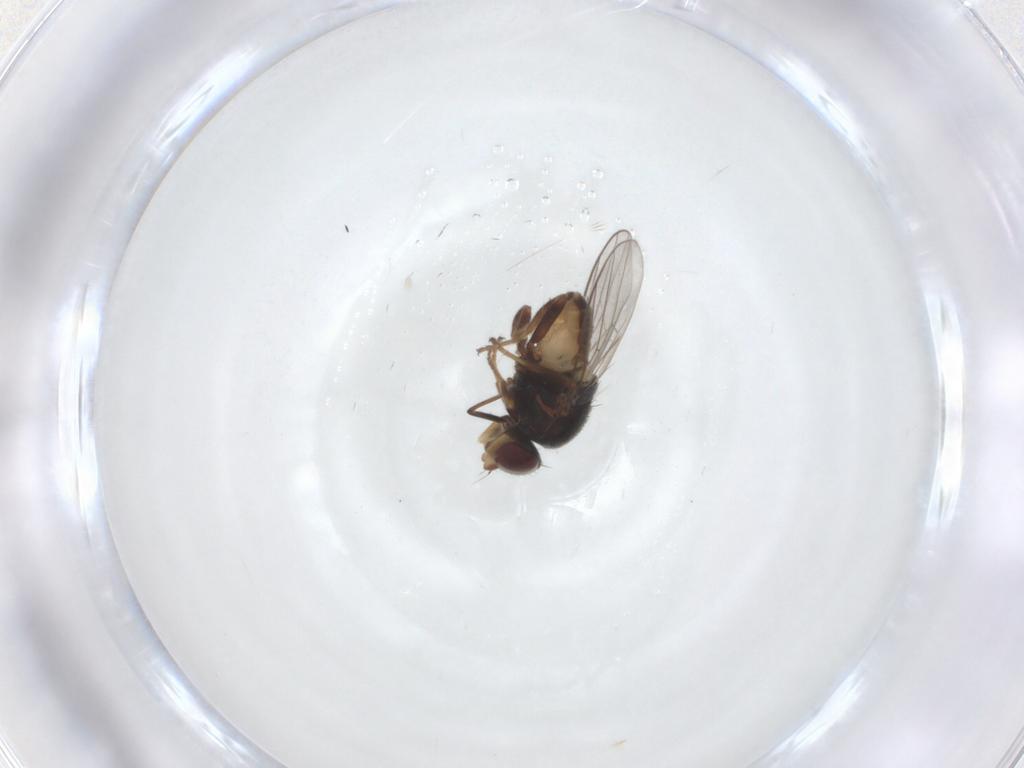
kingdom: Animalia
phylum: Arthropoda
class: Insecta
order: Diptera
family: Chloropidae
